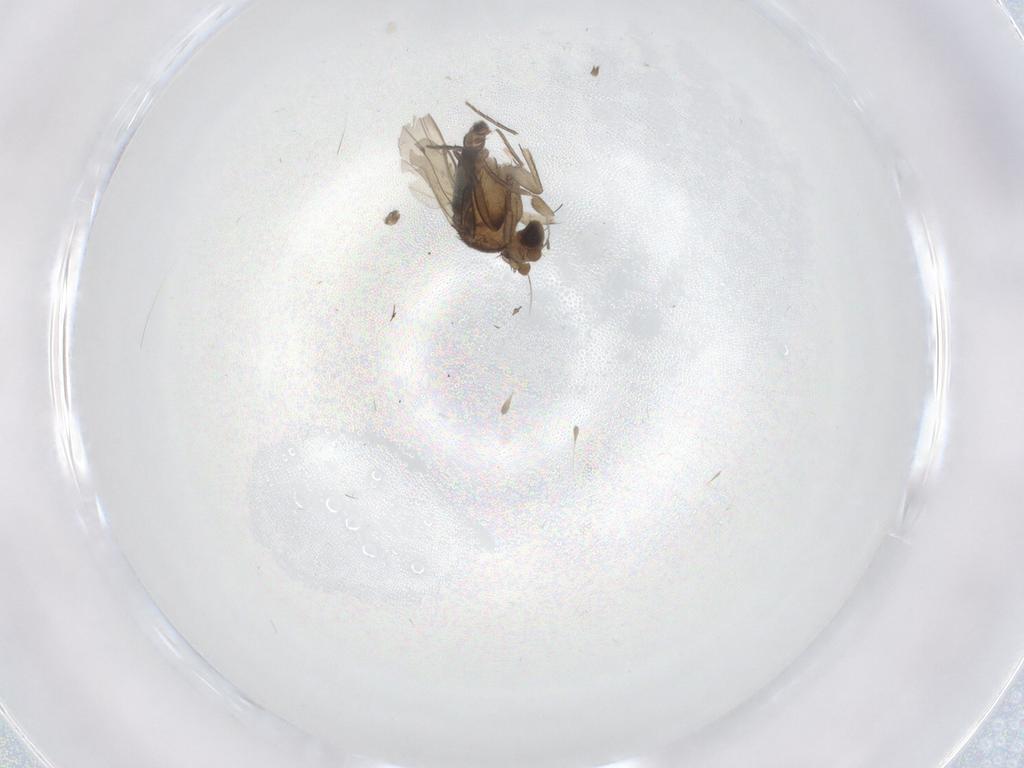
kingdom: Animalia
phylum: Arthropoda
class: Insecta
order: Diptera
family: Chironomidae
